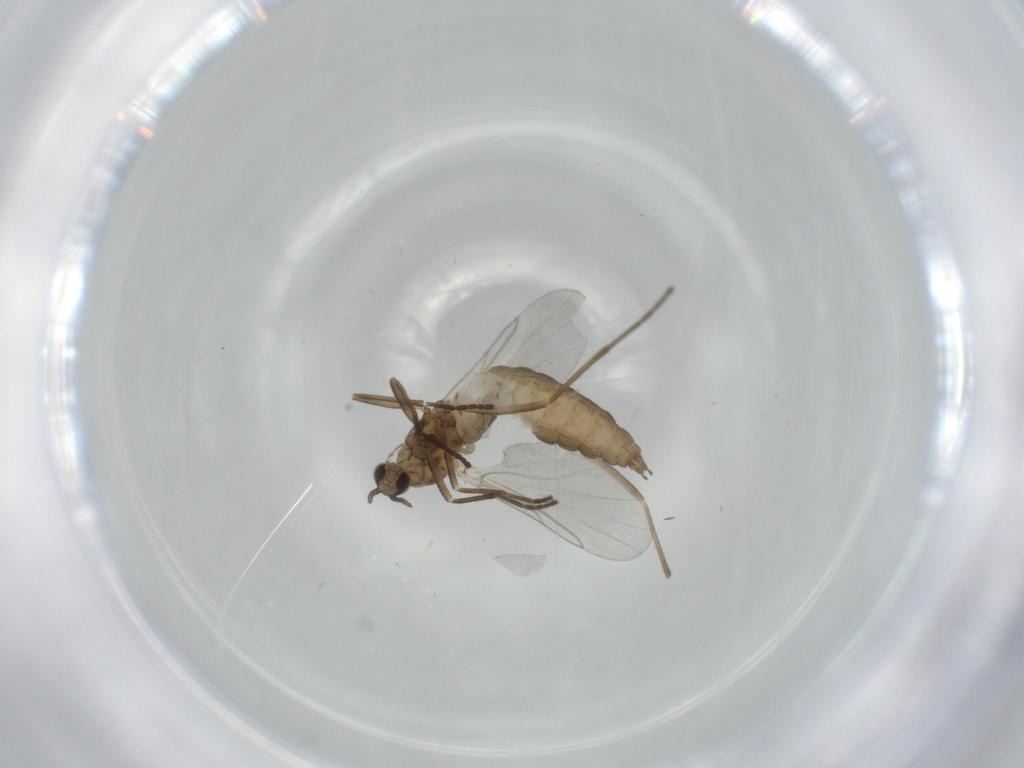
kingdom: Animalia
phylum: Arthropoda
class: Insecta
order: Diptera
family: Cecidomyiidae
